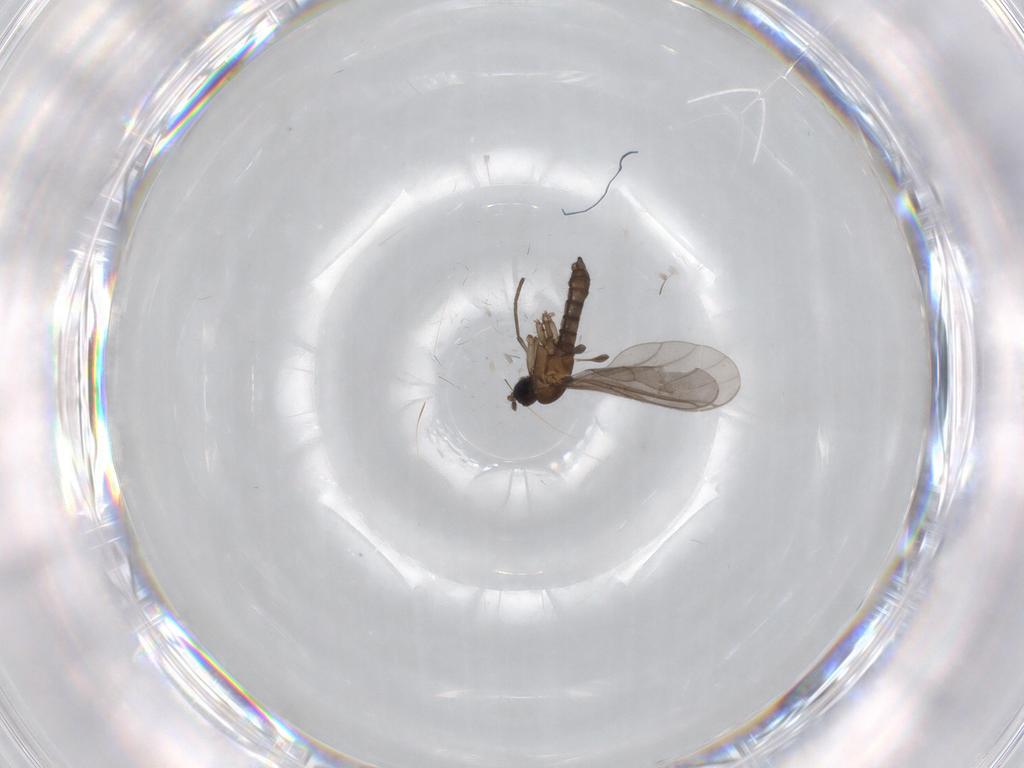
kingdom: Animalia
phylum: Arthropoda
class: Insecta
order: Diptera
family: Limoniidae
